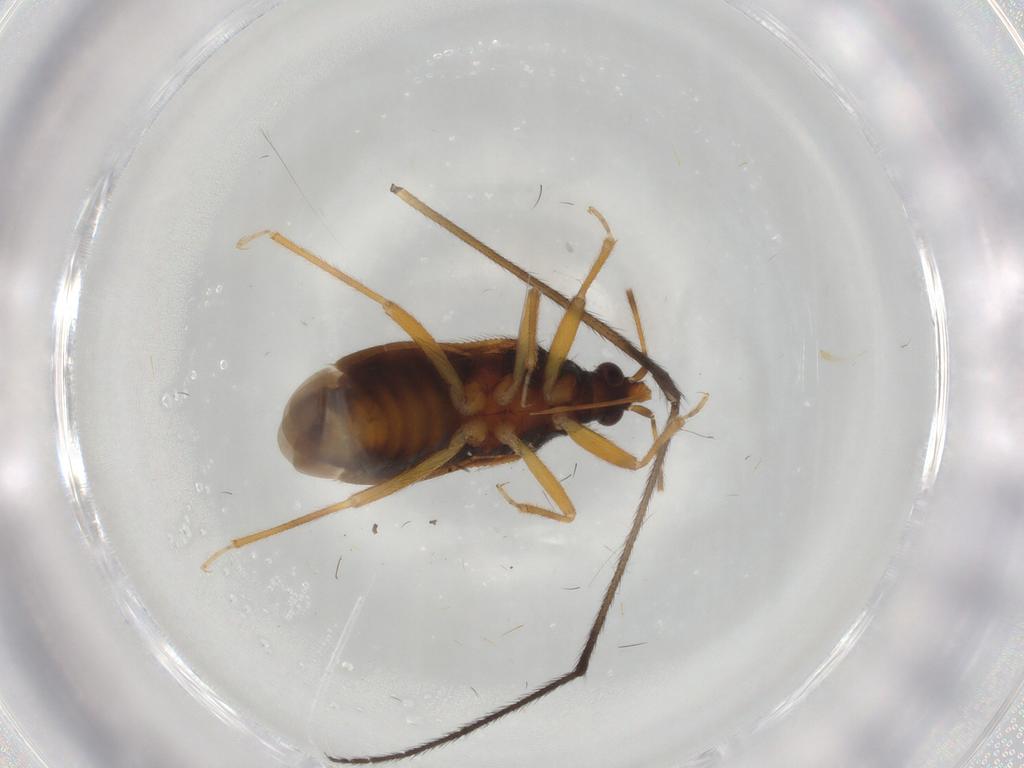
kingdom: Animalia
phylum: Arthropoda
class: Insecta
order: Hemiptera
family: Anthocoridae
